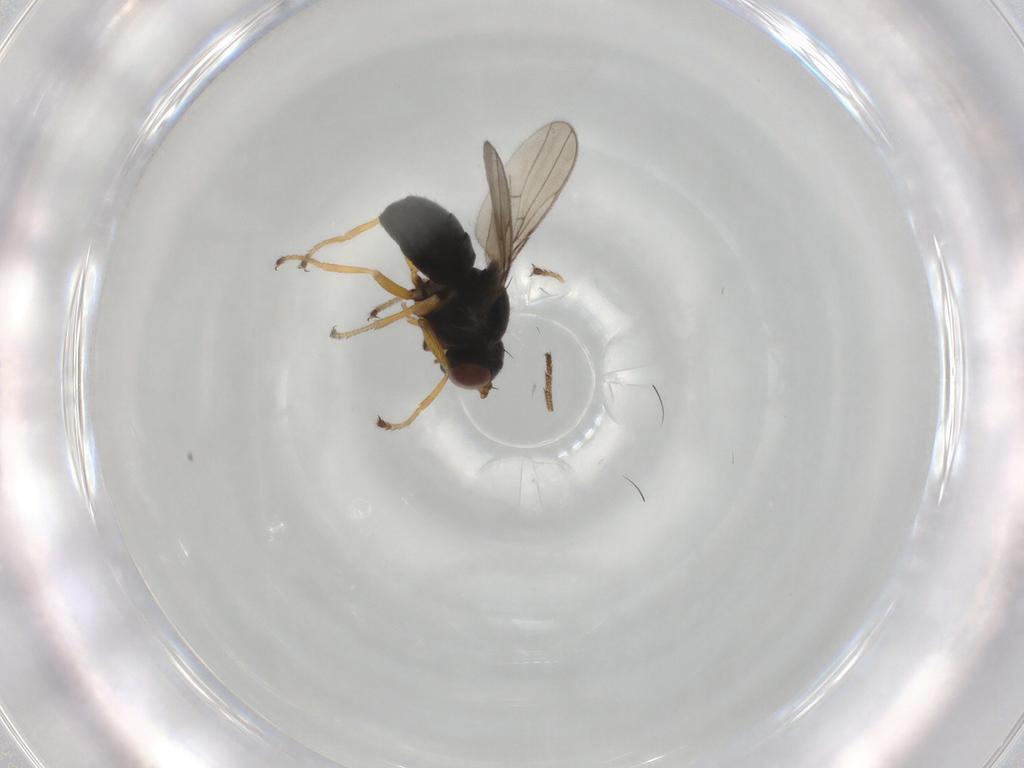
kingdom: Animalia
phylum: Arthropoda
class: Insecta
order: Diptera
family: Ephydridae
